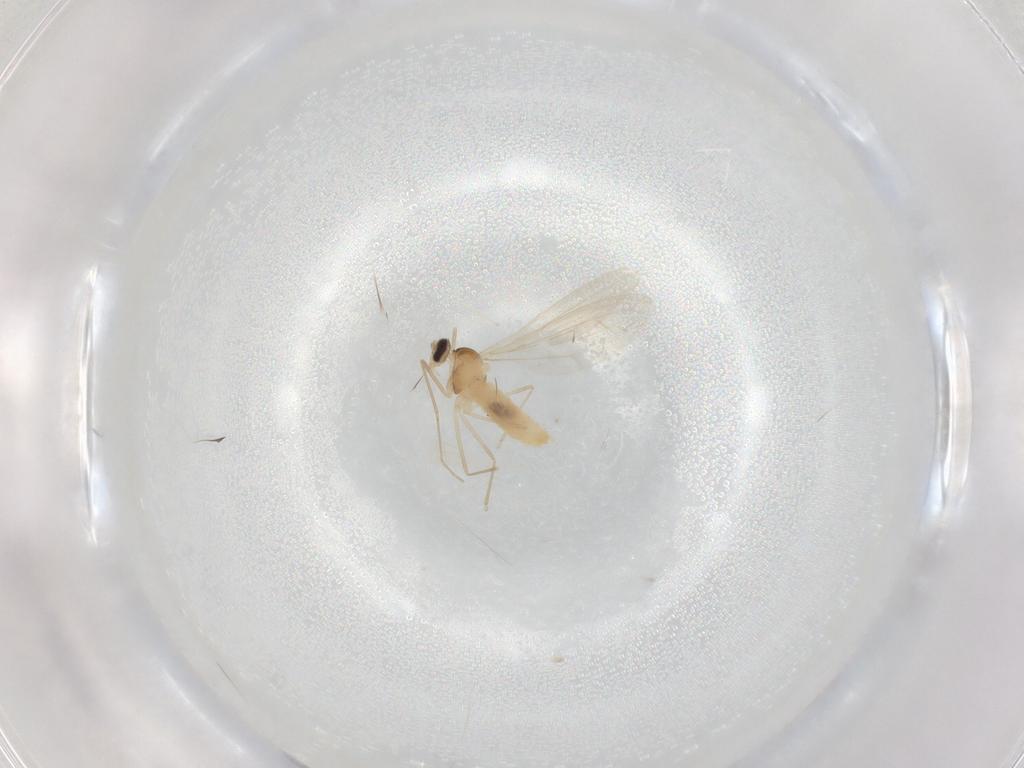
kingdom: Animalia
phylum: Arthropoda
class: Insecta
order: Diptera
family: Cecidomyiidae
